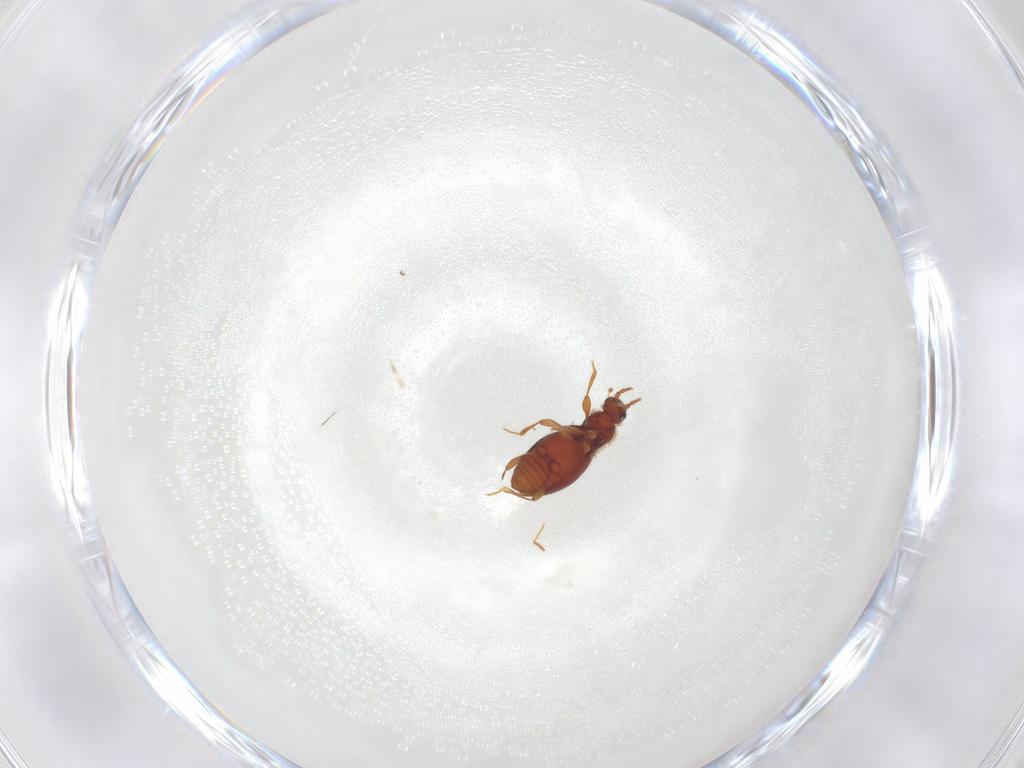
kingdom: Animalia
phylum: Arthropoda
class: Insecta
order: Coleoptera
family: Staphylinidae
